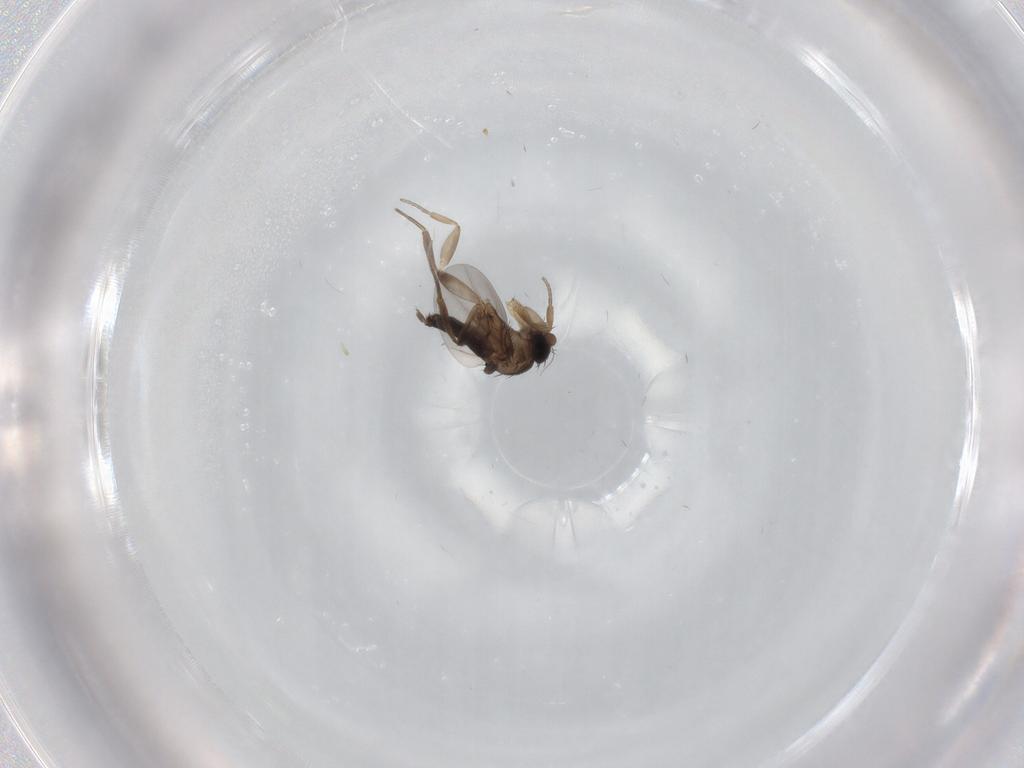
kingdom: Animalia
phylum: Arthropoda
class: Insecta
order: Diptera
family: Phoridae
